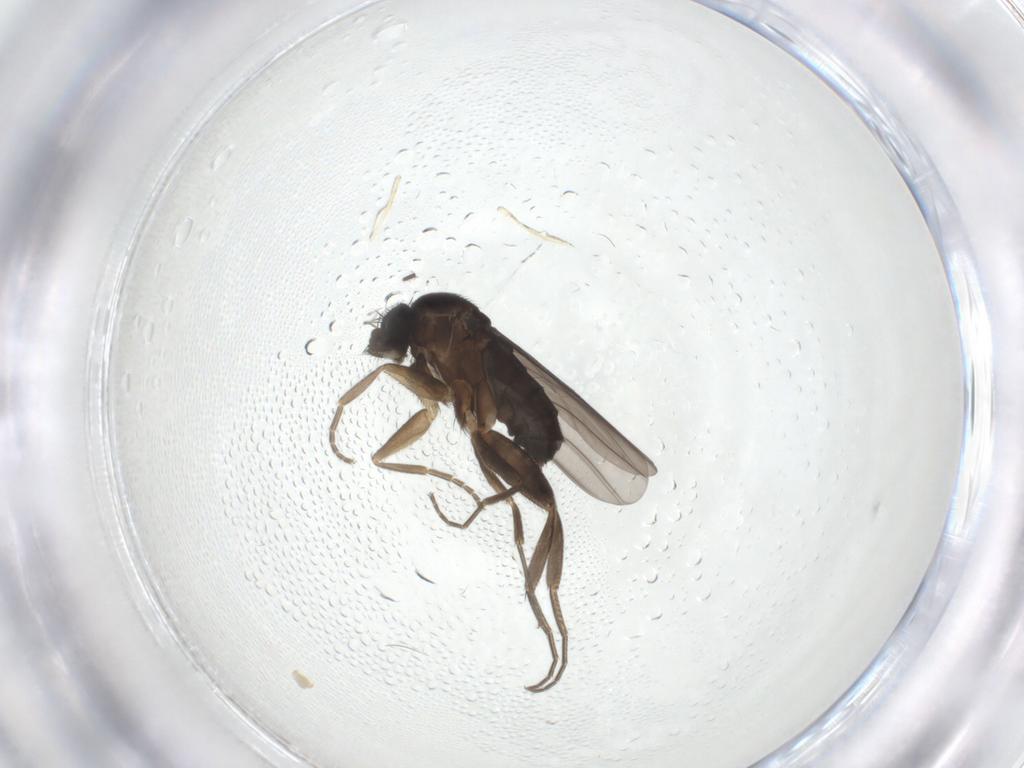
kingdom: Animalia
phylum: Arthropoda
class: Insecta
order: Diptera
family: Phoridae
